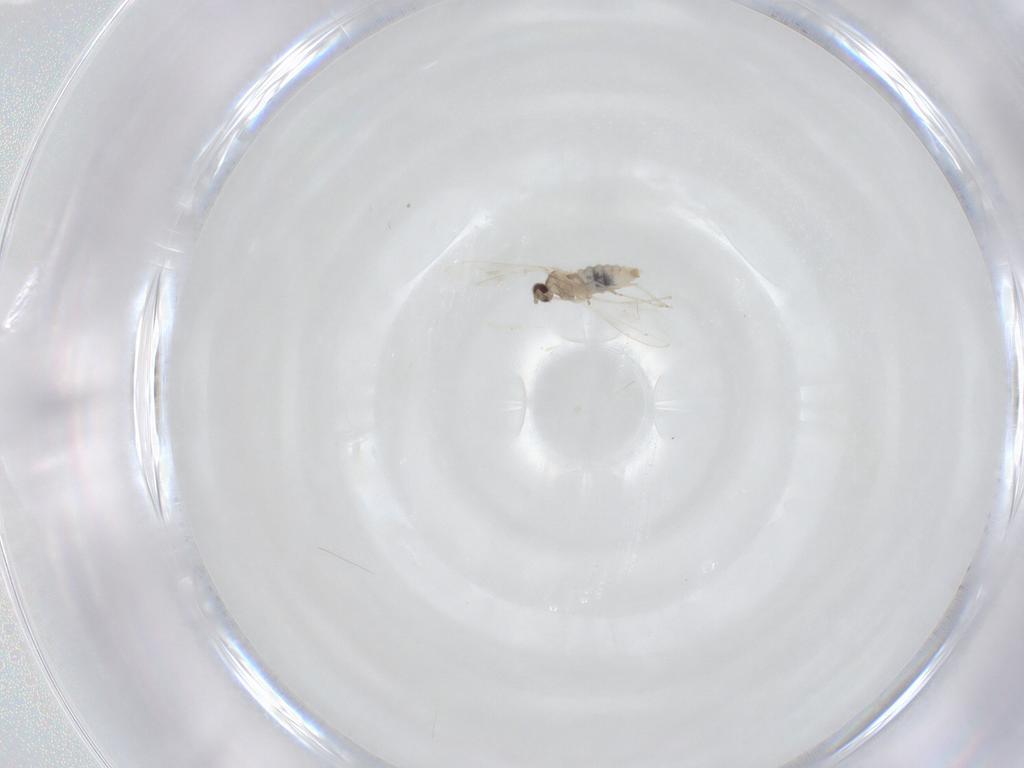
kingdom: Animalia
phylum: Arthropoda
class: Insecta
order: Diptera
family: Cecidomyiidae
